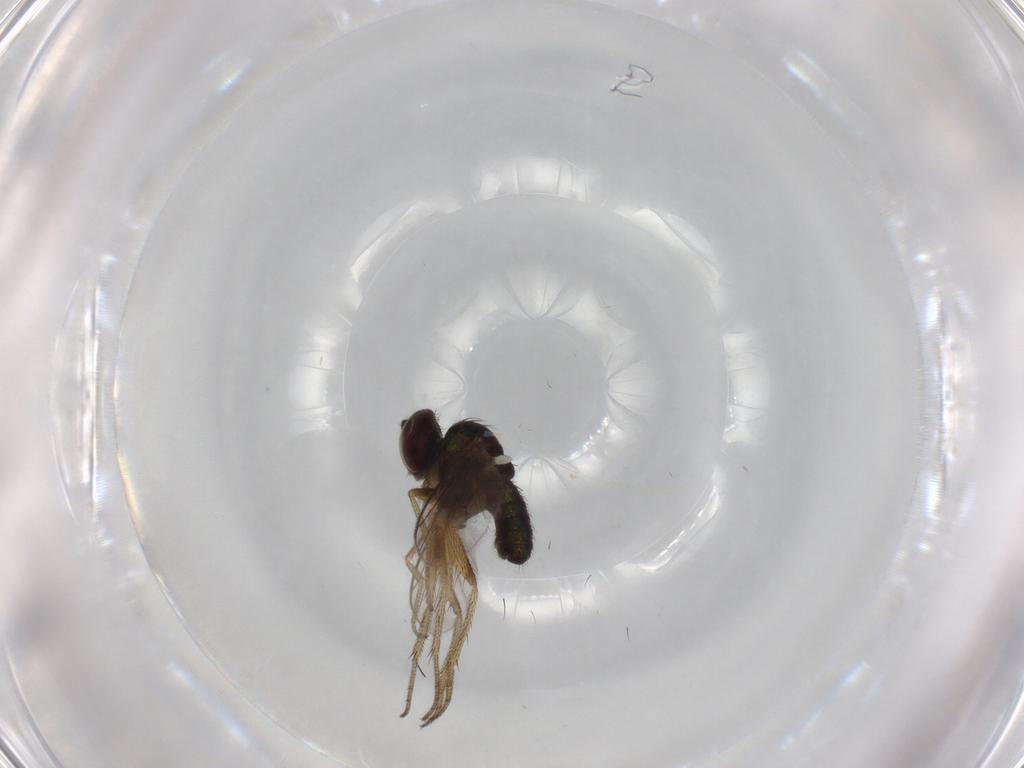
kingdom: Animalia
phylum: Arthropoda
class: Insecta
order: Diptera
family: Dolichopodidae
